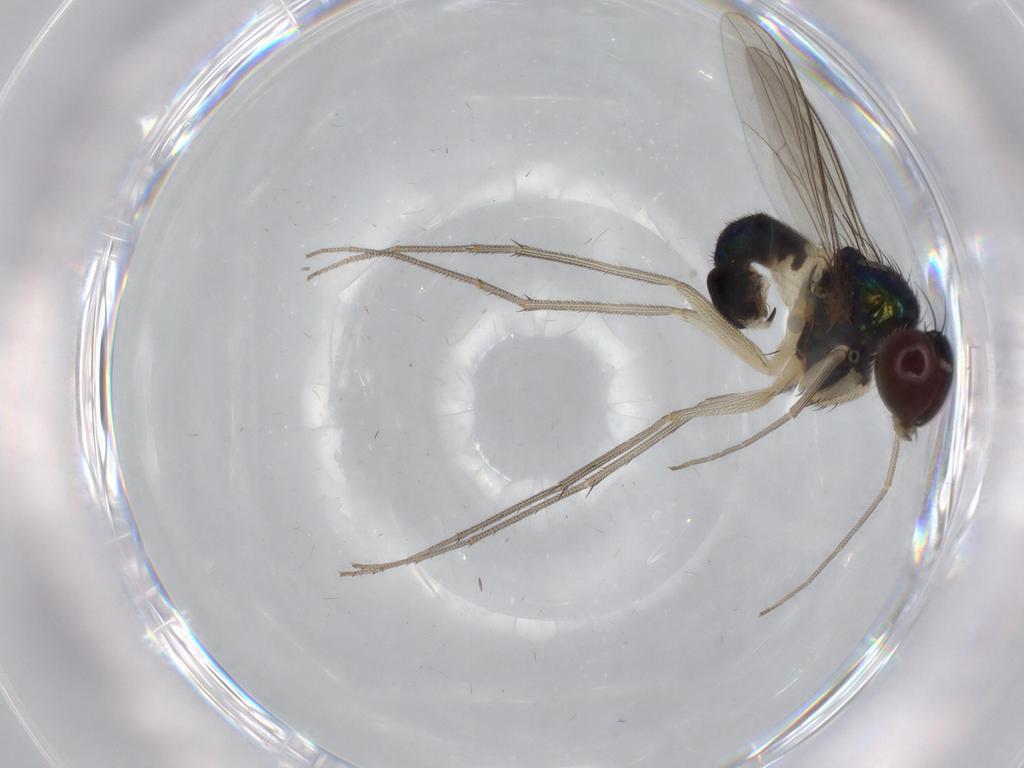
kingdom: Animalia
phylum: Arthropoda
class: Insecta
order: Diptera
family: Dolichopodidae
